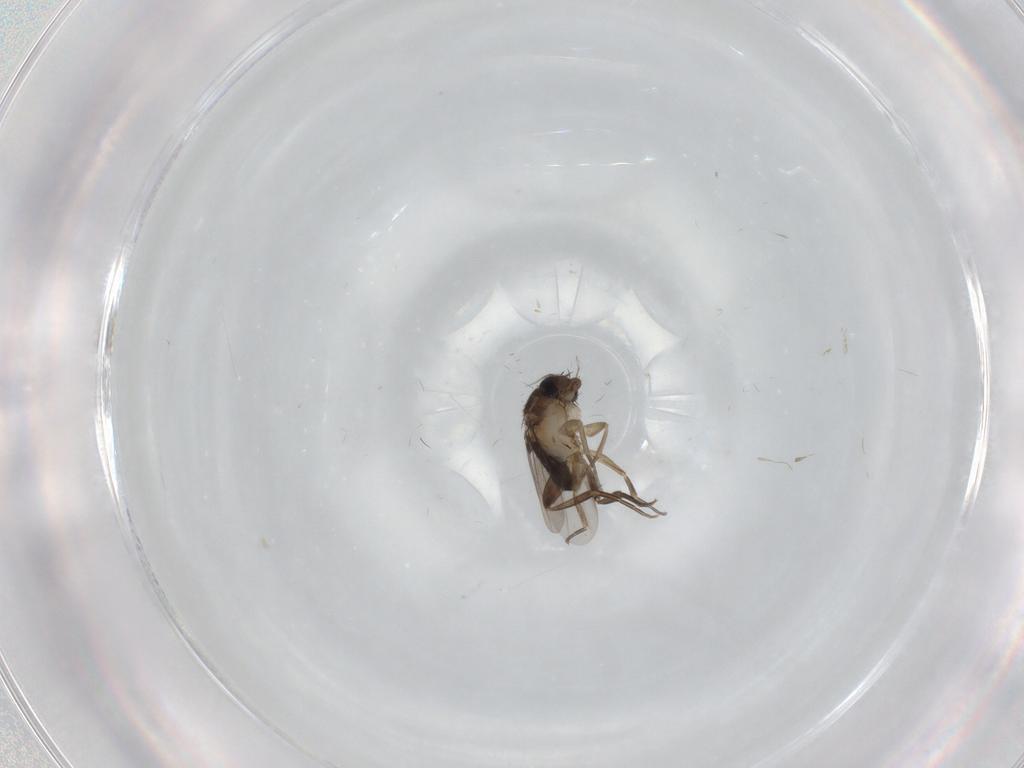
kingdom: Animalia
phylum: Arthropoda
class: Insecta
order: Diptera
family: Phoridae
